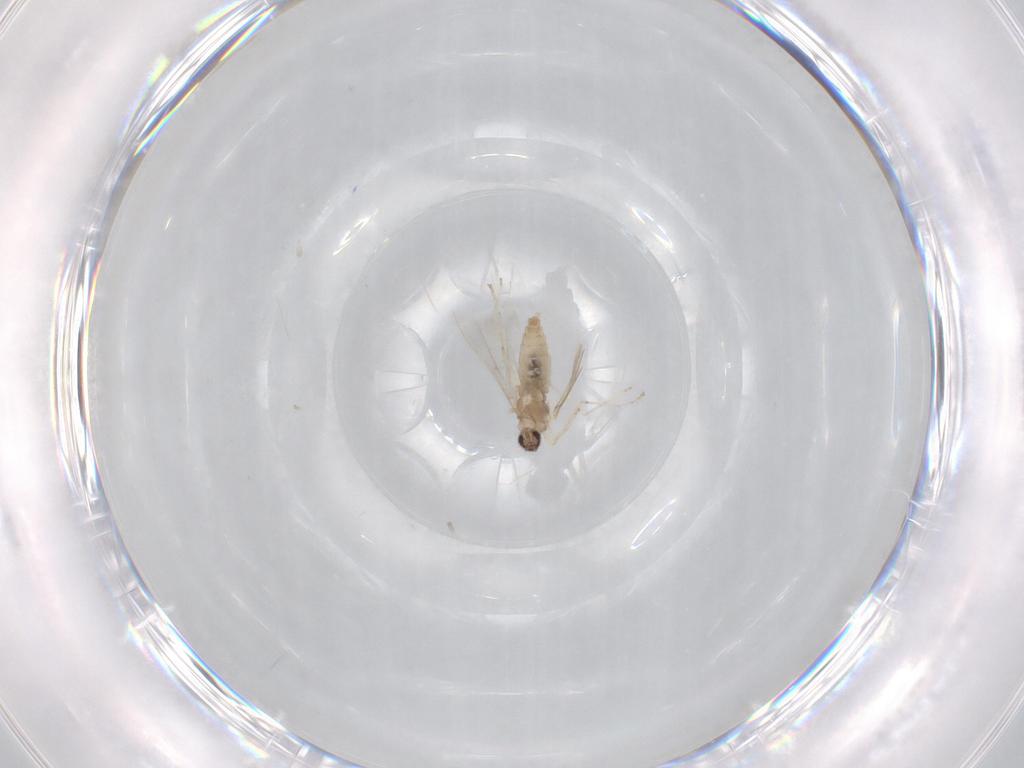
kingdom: Animalia
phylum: Arthropoda
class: Insecta
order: Diptera
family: Cecidomyiidae
